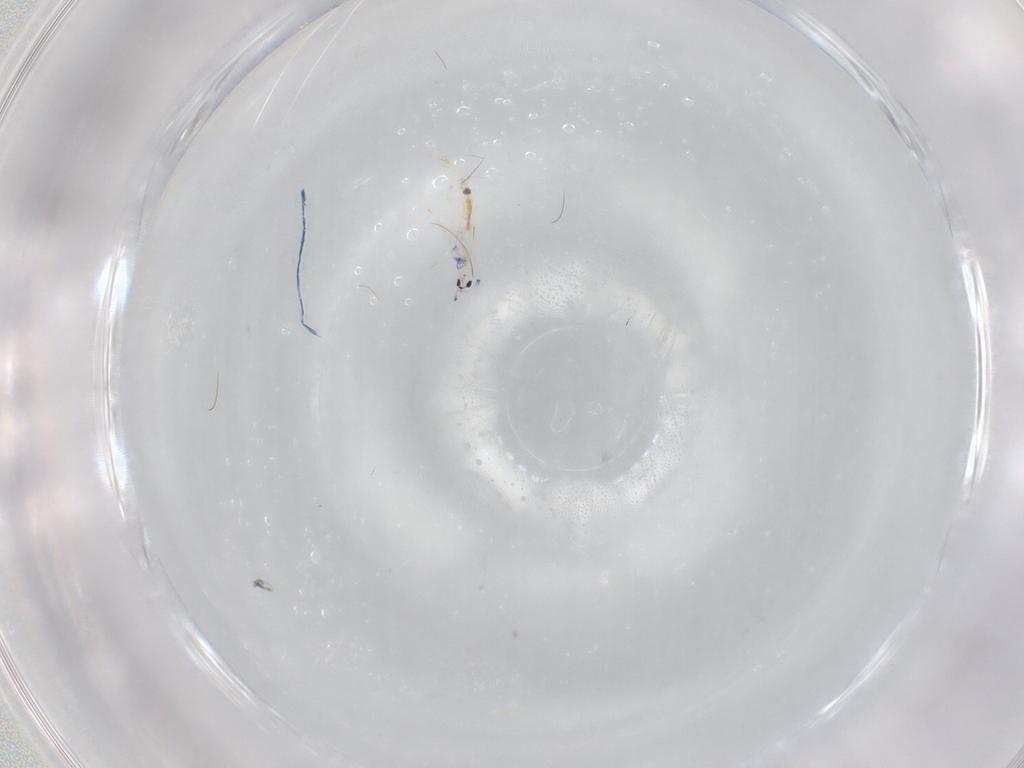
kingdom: Animalia
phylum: Arthropoda
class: Collembola
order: Entomobryomorpha
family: Entomobryidae
